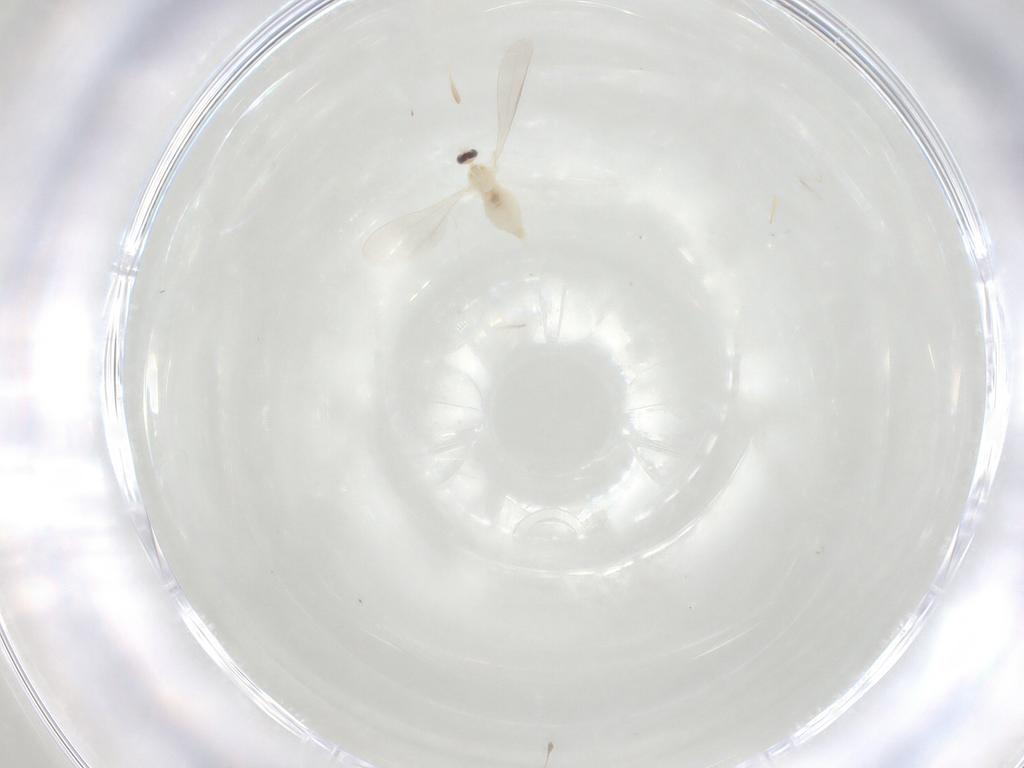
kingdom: Animalia
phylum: Arthropoda
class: Insecta
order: Diptera
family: Cecidomyiidae
